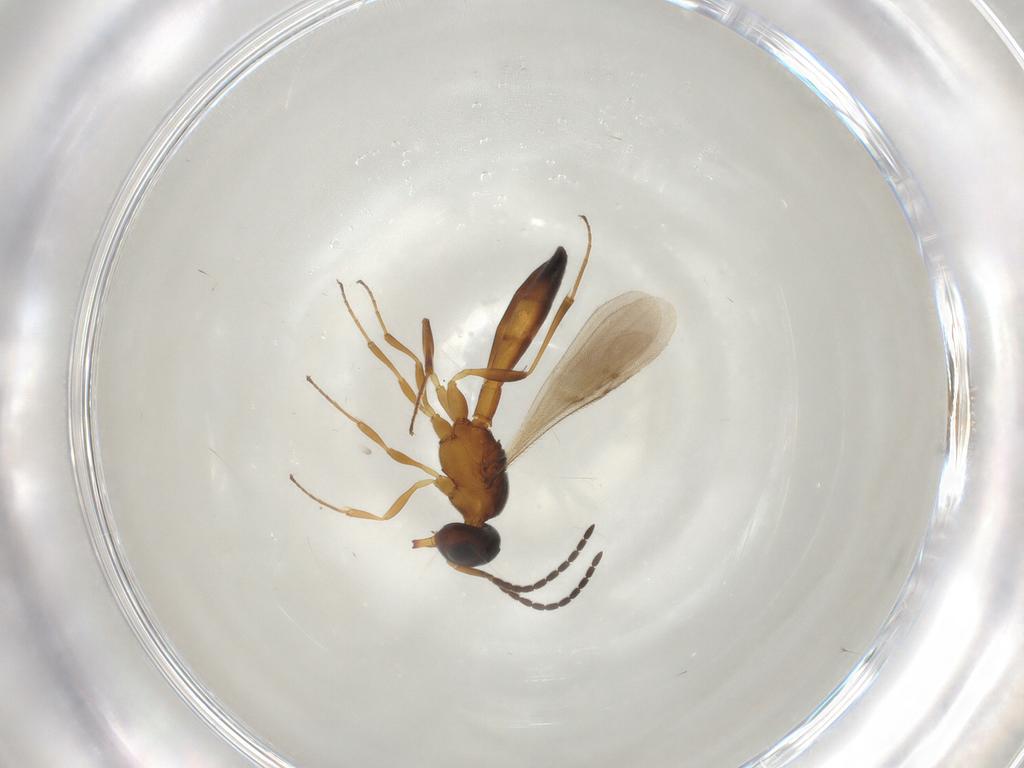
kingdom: Animalia
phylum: Arthropoda
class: Insecta
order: Hymenoptera
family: Scelionidae
